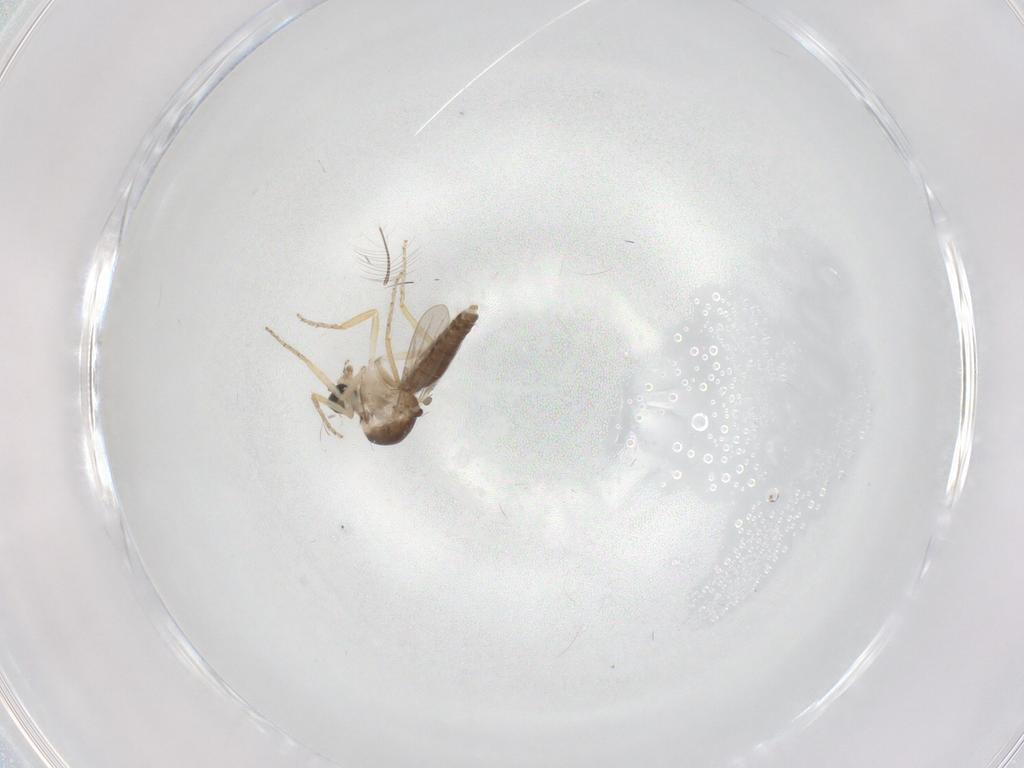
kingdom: Animalia
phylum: Arthropoda
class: Insecta
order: Diptera
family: Ceratopogonidae
